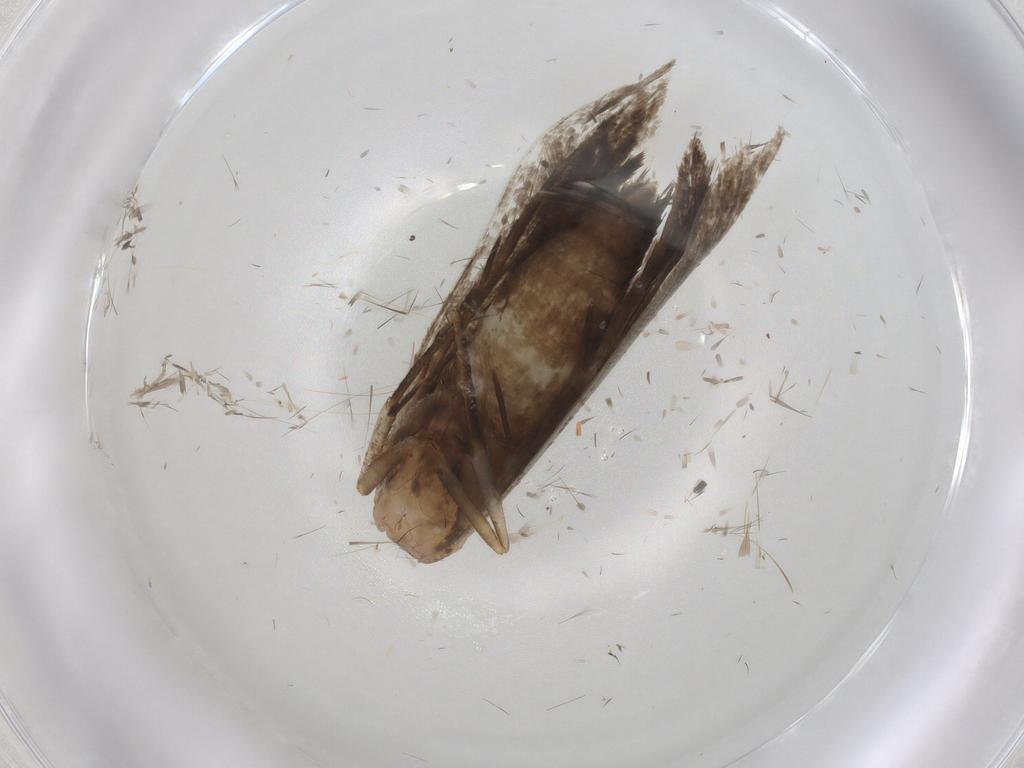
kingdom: Animalia
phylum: Arthropoda
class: Insecta
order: Lepidoptera
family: Gelechiidae
